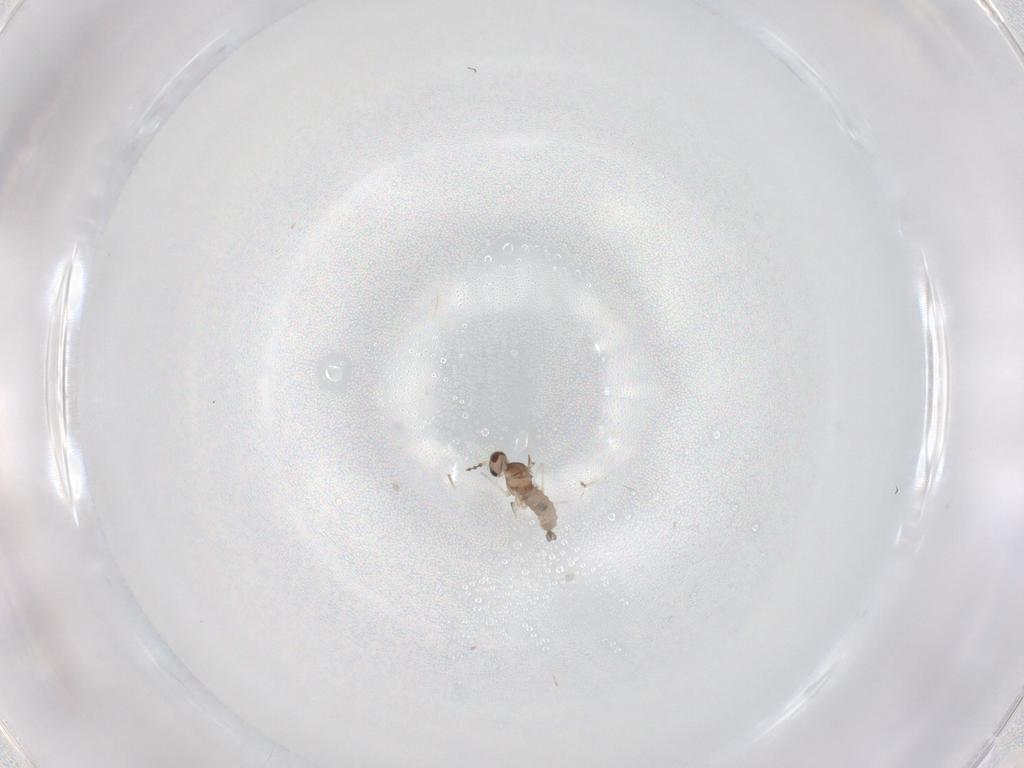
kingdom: Animalia
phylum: Arthropoda
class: Insecta
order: Diptera
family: Cecidomyiidae
